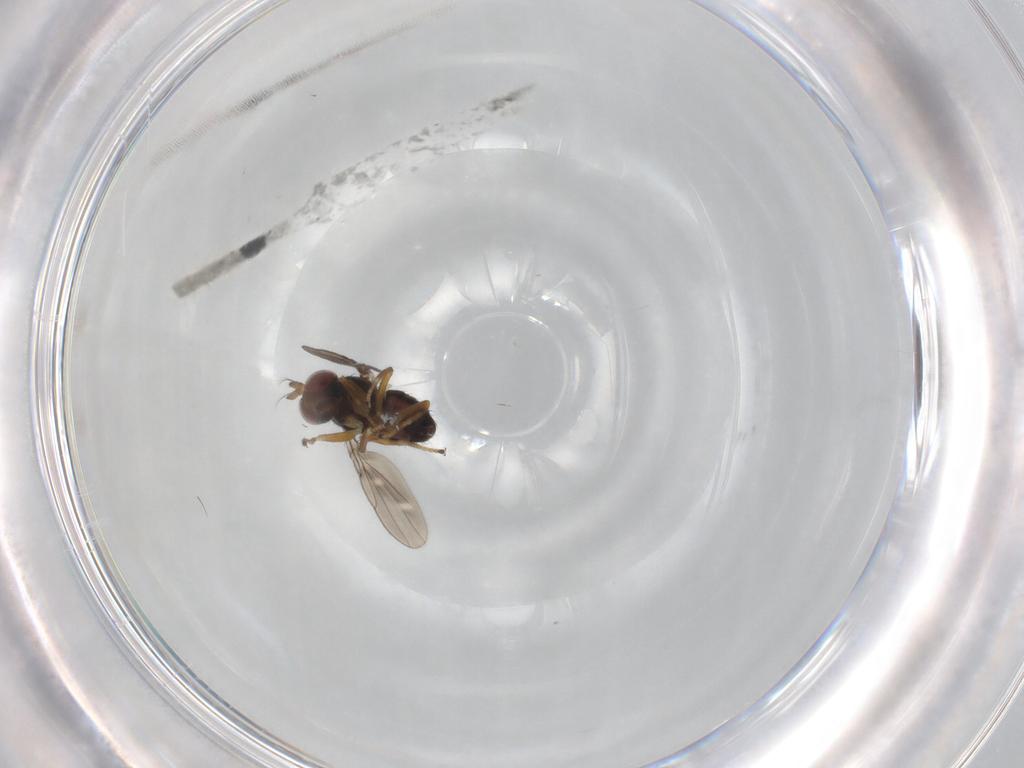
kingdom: Animalia
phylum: Arthropoda
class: Insecta
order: Diptera
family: Ephydridae
